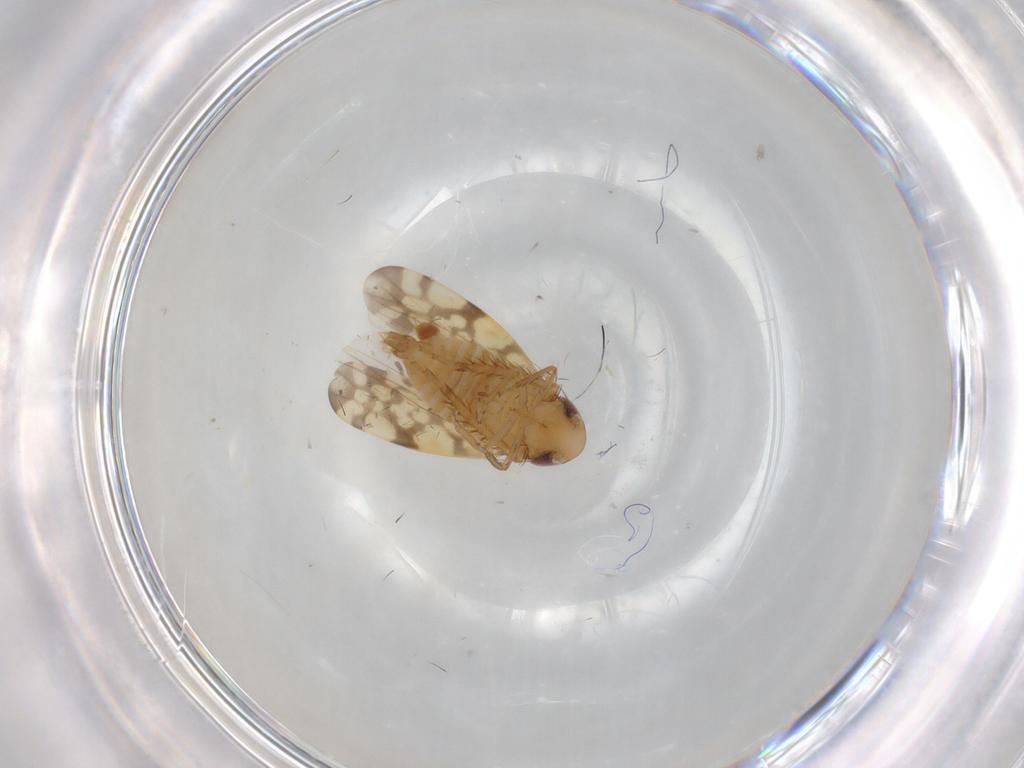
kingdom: Animalia
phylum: Arthropoda
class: Insecta
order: Hemiptera
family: Cicadellidae
